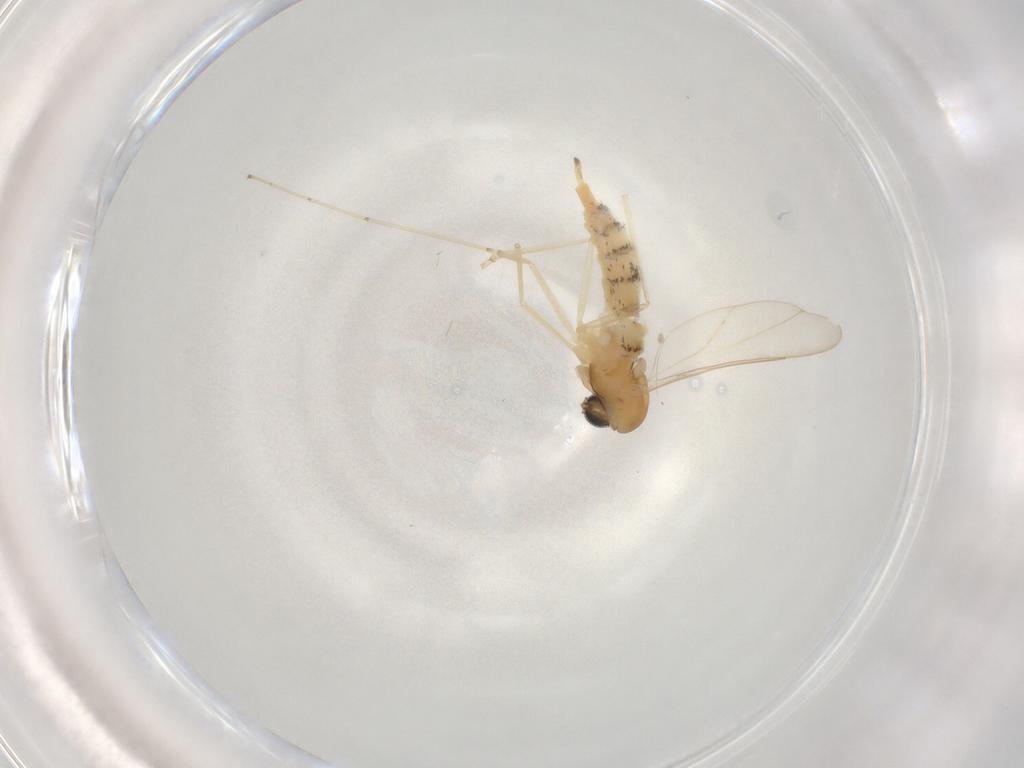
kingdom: Animalia
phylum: Arthropoda
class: Insecta
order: Diptera
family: Cecidomyiidae
